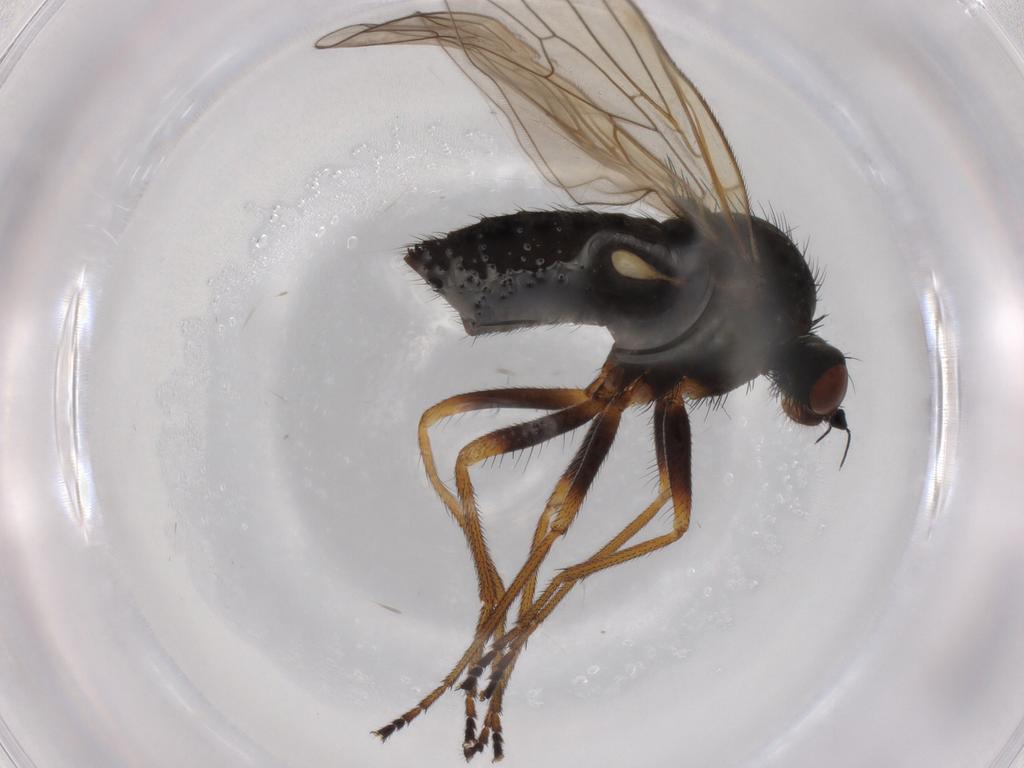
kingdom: Animalia
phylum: Arthropoda
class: Insecta
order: Diptera
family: Brachystomatidae
